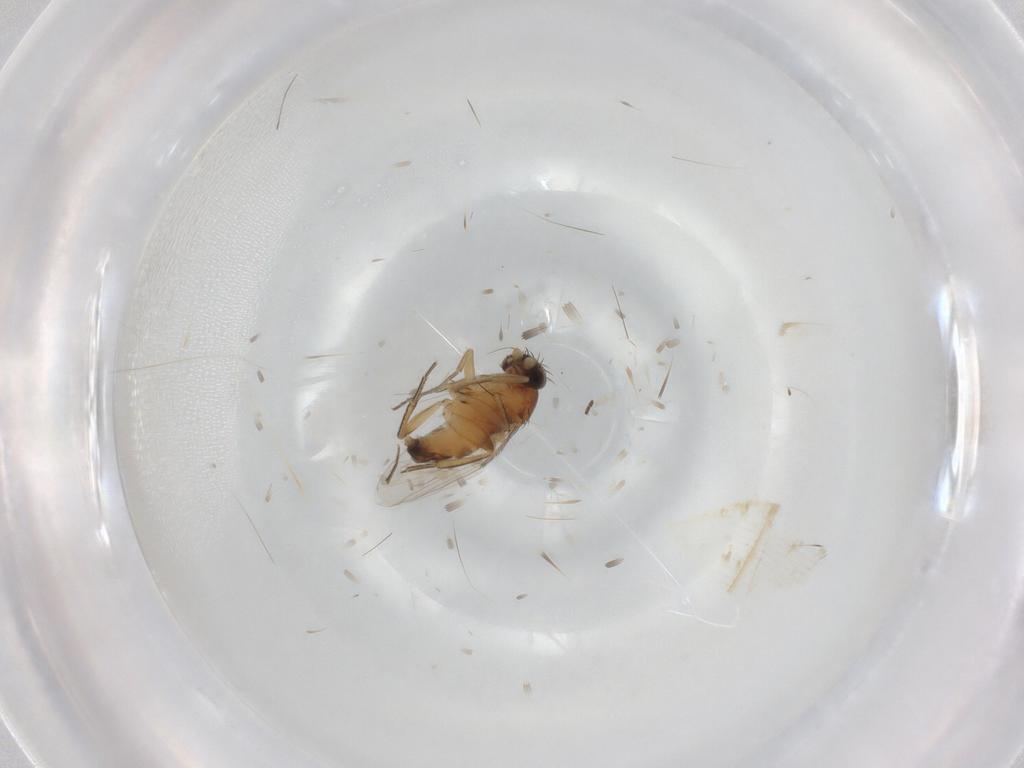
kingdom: Animalia
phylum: Arthropoda
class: Insecta
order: Diptera
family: Phoridae
